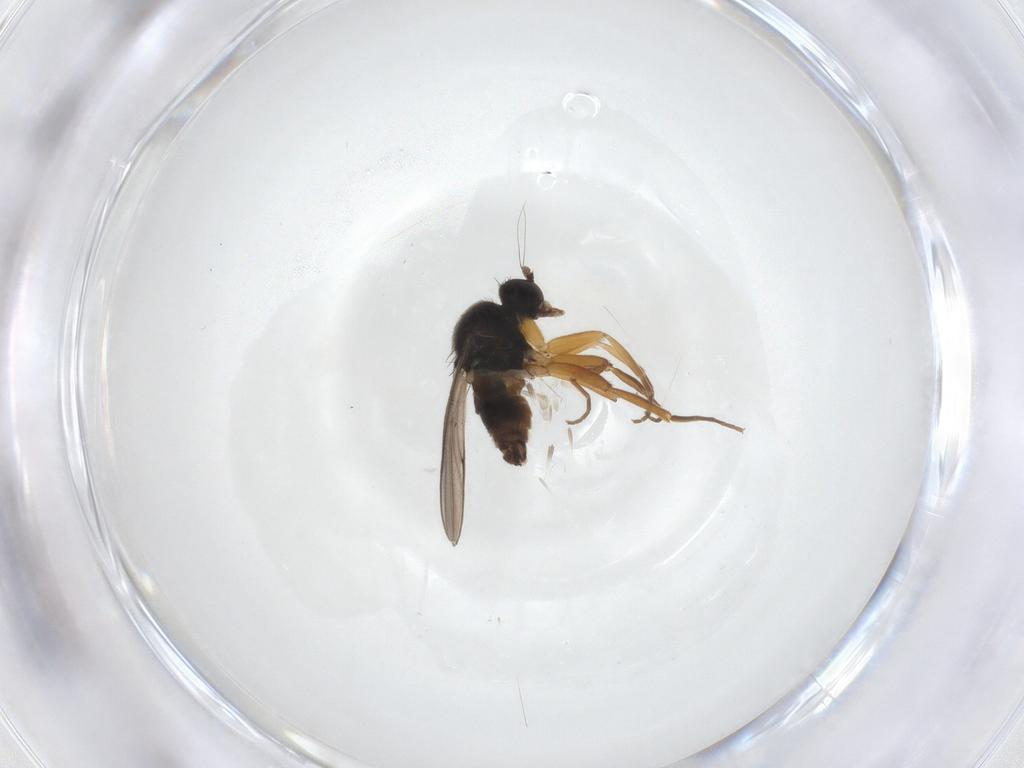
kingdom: Animalia
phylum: Arthropoda
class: Insecta
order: Diptera
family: Hybotidae
